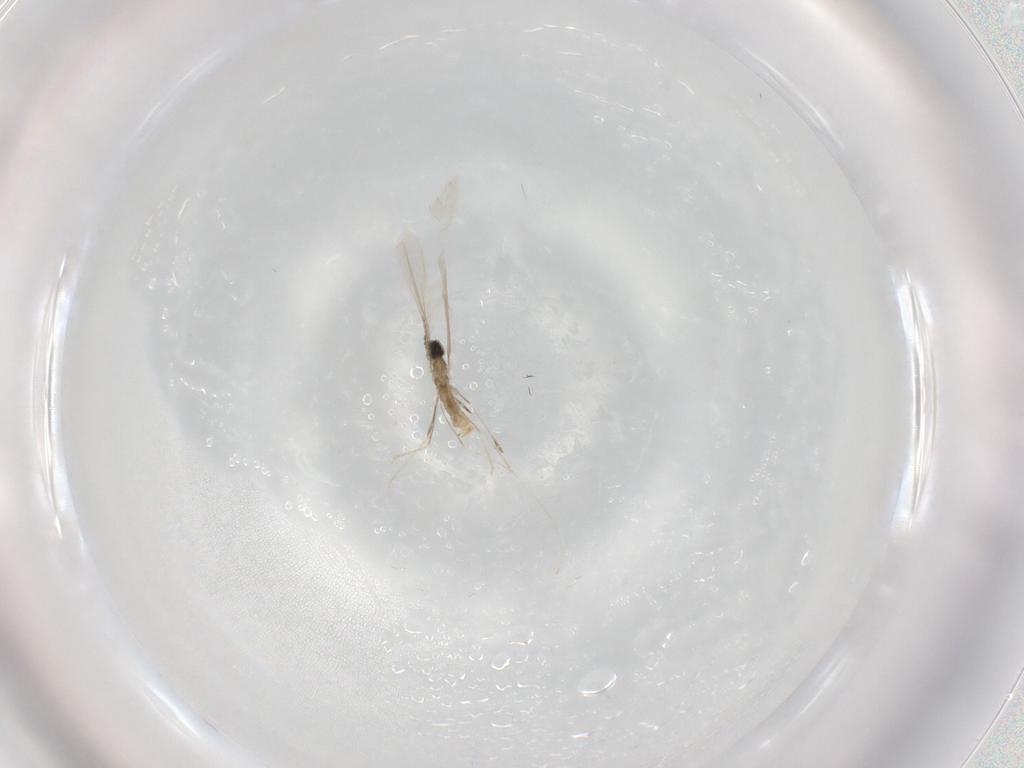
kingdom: Animalia
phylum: Arthropoda
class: Insecta
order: Diptera
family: Cecidomyiidae
